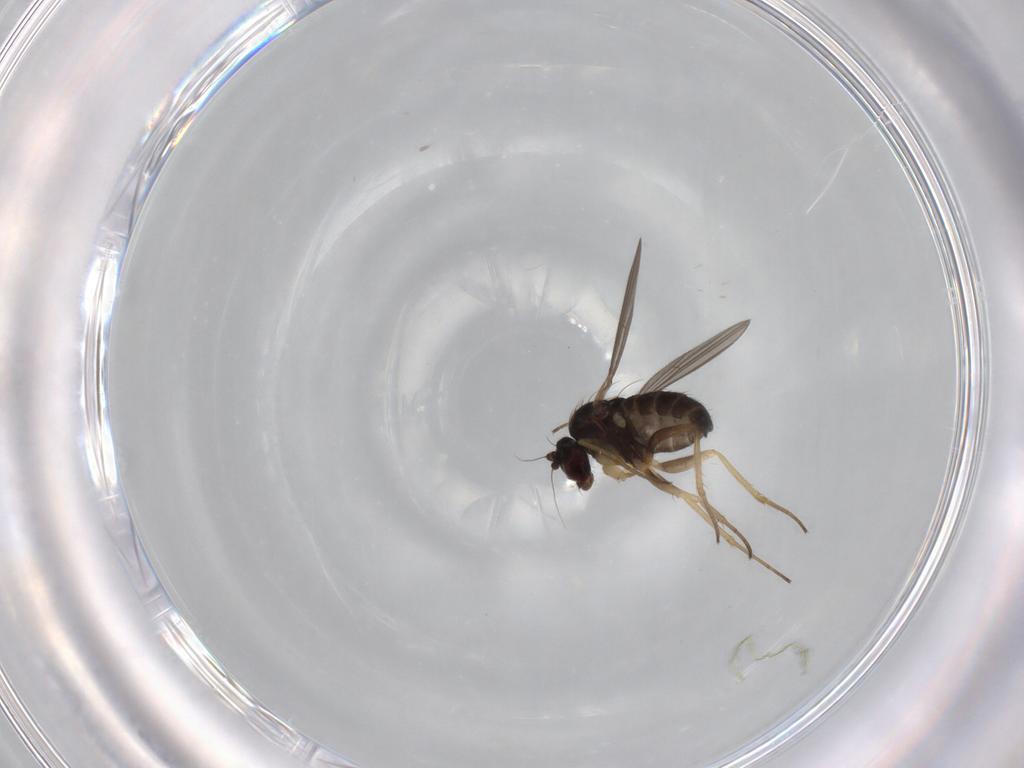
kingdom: Animalia
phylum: Arthropoda
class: Insecta
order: Diptera
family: Dolichopodidae
